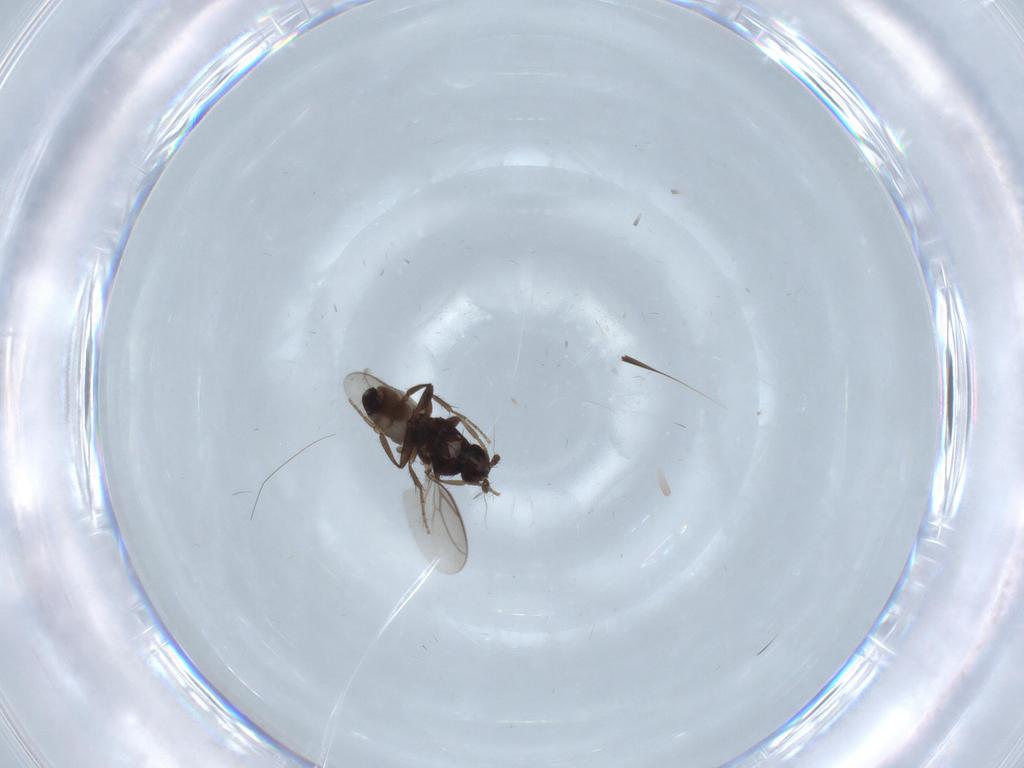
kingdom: Animalia
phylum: Arthropoda
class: Insecta
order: Diptera
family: Sphaeroceridae
